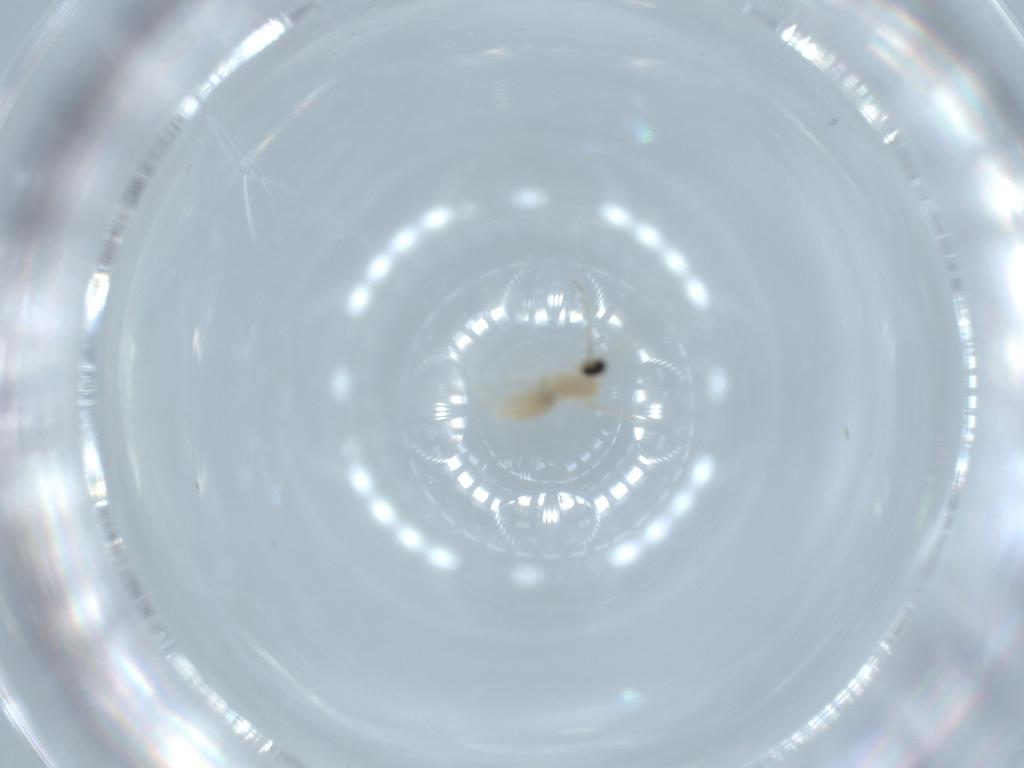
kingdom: Animalia
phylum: Arthropoda
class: Insecta
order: Diptera
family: Cecidomyiidae
